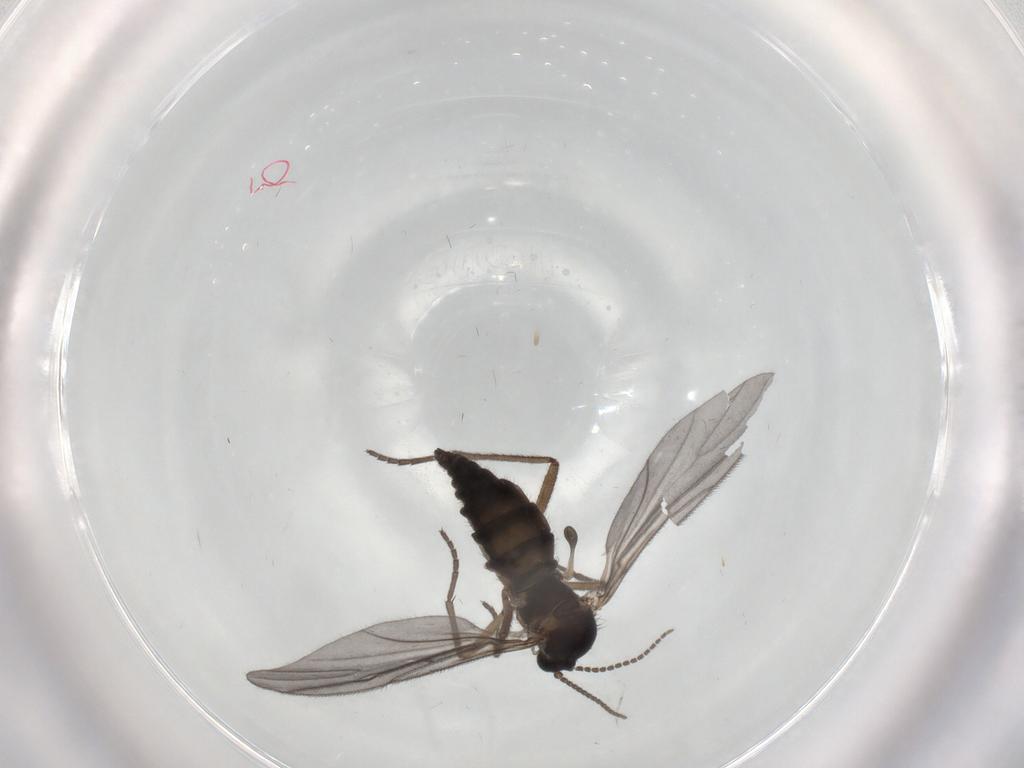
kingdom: Animalia
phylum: Arthropoda
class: Insecta
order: Diptera
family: Sciaridae
